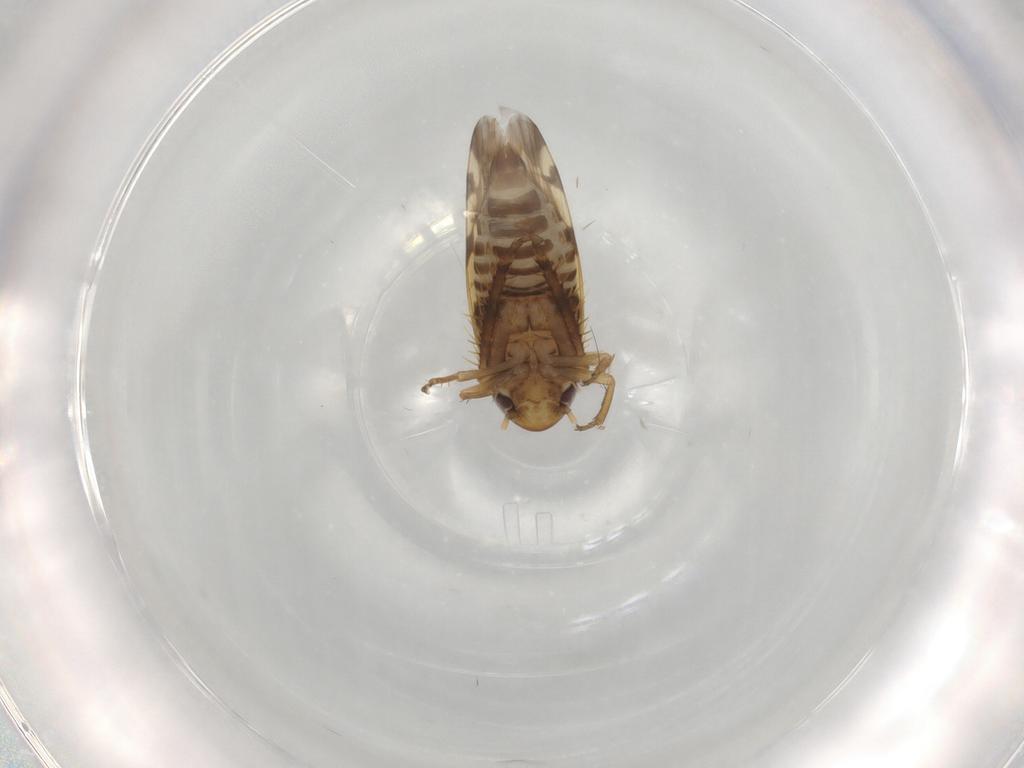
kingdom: Animalia
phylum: Arthropoda
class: Insecta
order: Hemiptera
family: Cicadellidae
